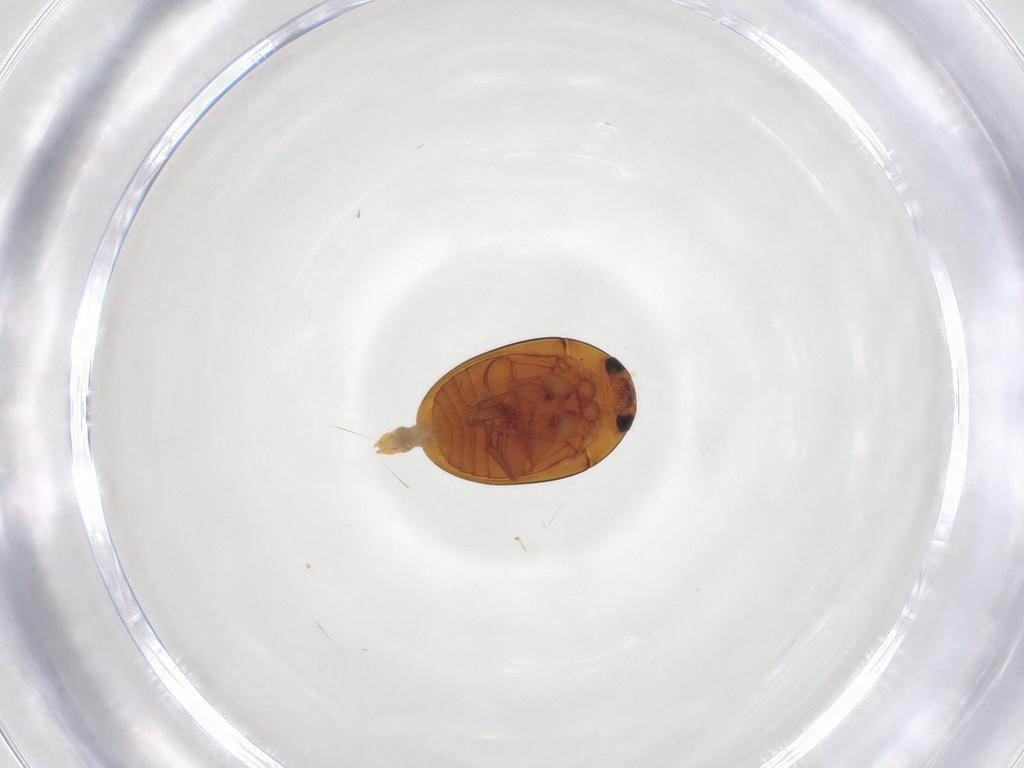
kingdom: Animalia
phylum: Arthropoda
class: Insecta
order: Coleoptera
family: Phalacridae
